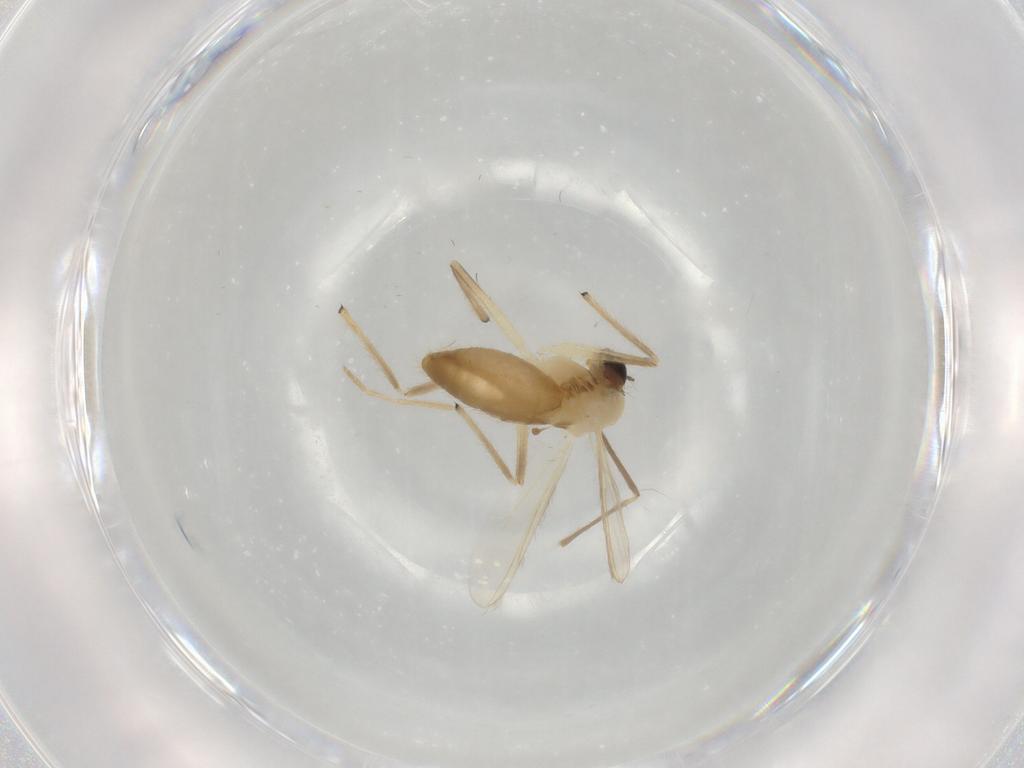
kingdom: Animalia
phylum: Arthropoda
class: Insecta
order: Diptera
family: Chironomidae
